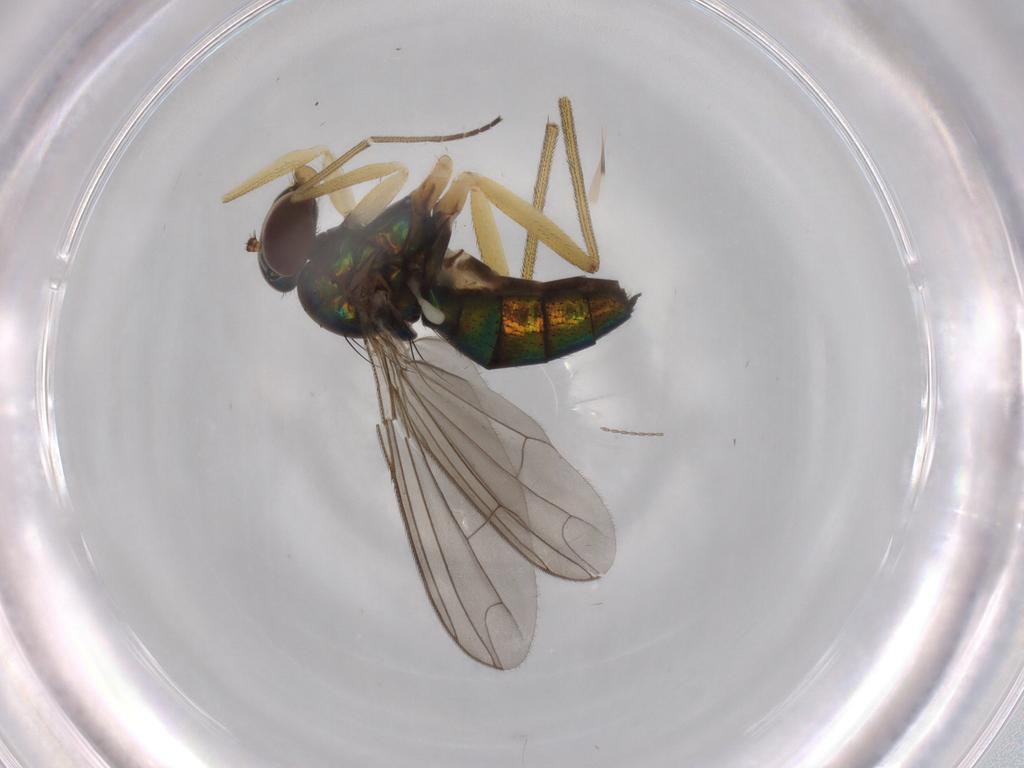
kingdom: Animalia
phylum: Arthropoda
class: Insecta
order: Diptera
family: Dolichopodidae
